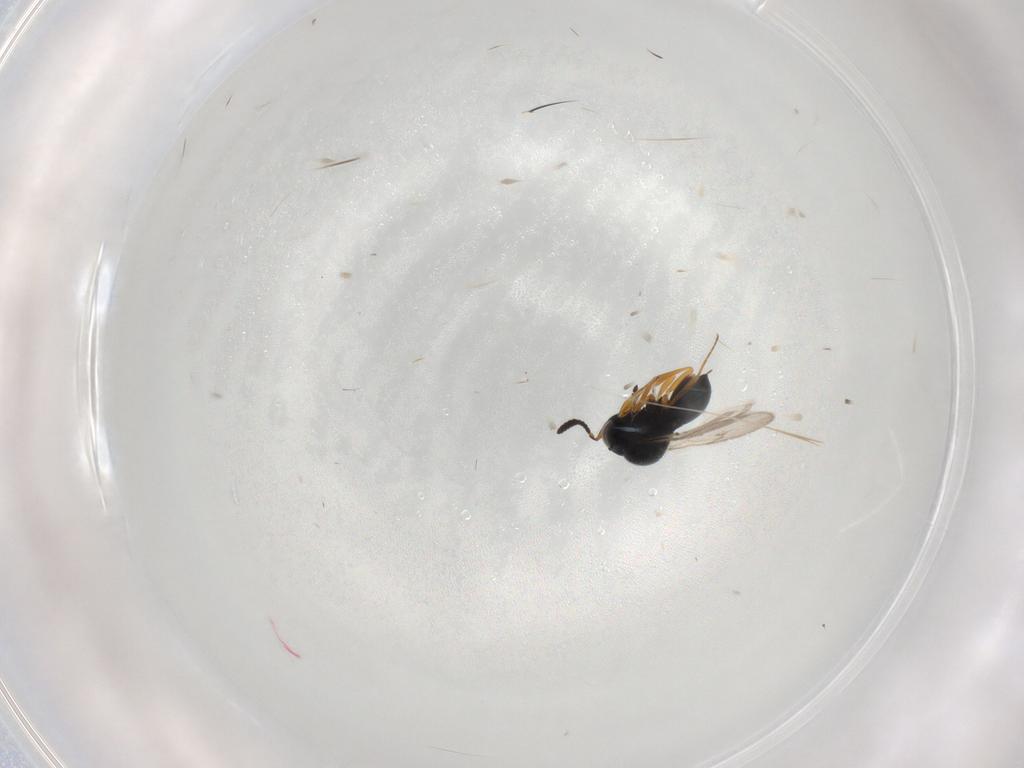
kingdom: Animalia
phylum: Arthropoda
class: Insecta
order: Hymenoptera
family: Scelionidae
